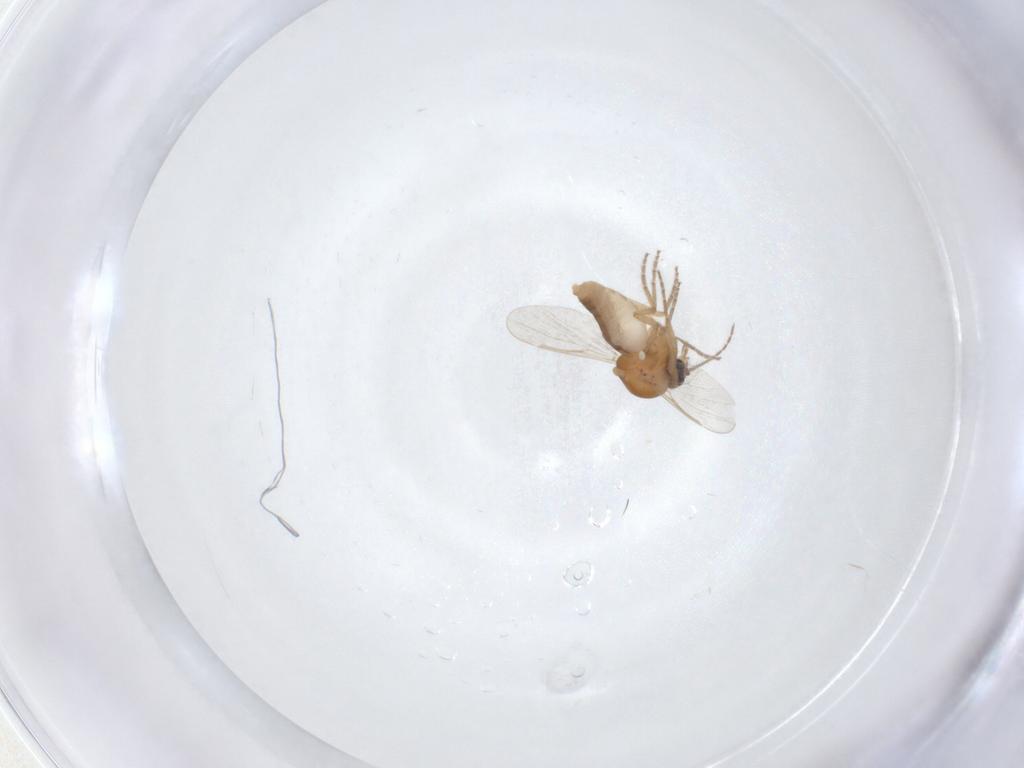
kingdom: Animalia
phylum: Arthropoda
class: Insecta
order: Diptera
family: Ceratopogonidae
